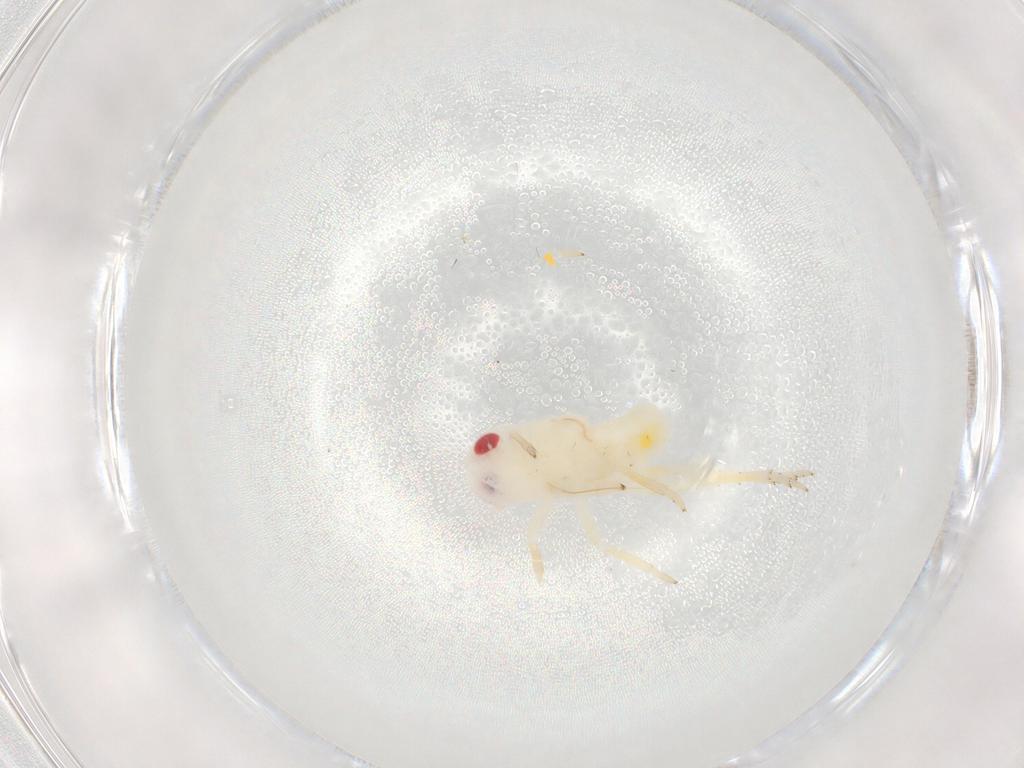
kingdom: Animalia
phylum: Arthropoda
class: Insecta
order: Hemiptera
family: Tropiduchidae
